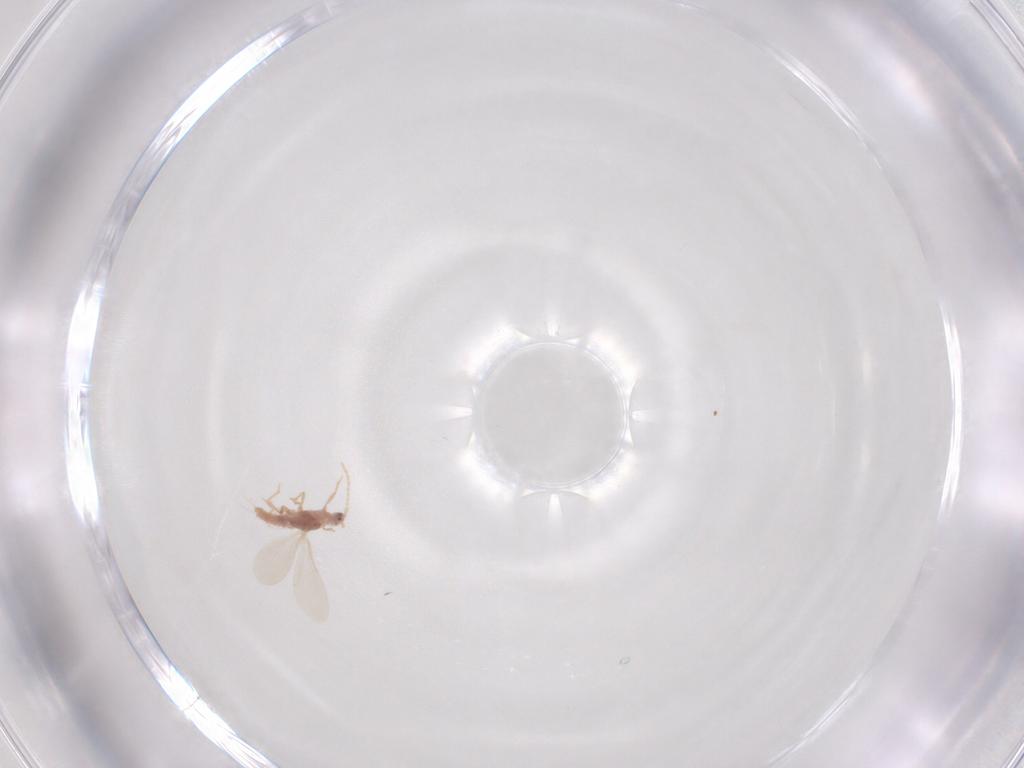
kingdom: Animalia
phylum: Arthropoda
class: Insecta
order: Hemiptera
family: Pseudococcidae
